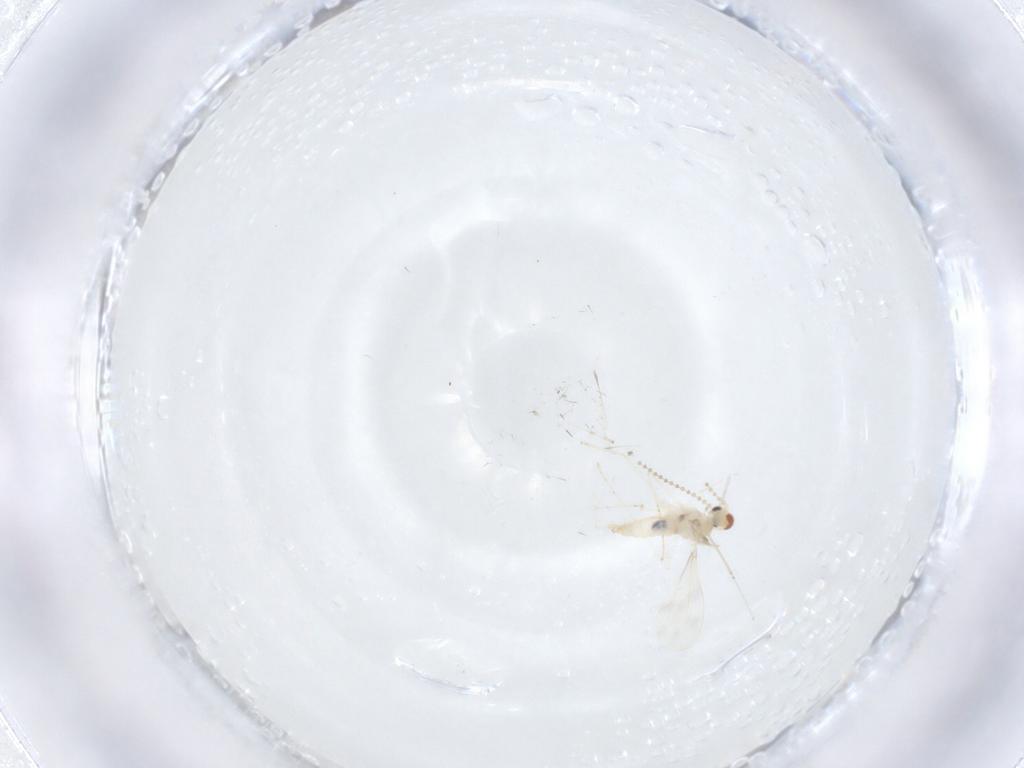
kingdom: Animalia
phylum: Arthropoda
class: Insecta
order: Diptera
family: Cecidomyiidae
